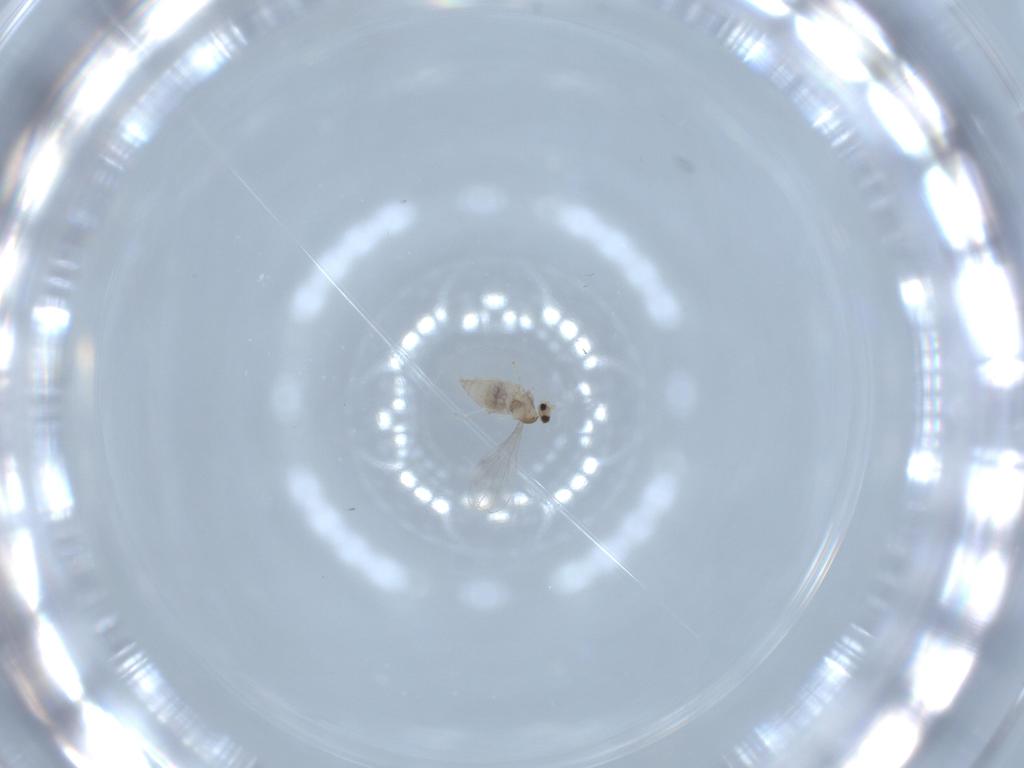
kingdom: Animalia
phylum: Arthropoda
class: Insecta
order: Diptera
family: Cecidomyiidae
